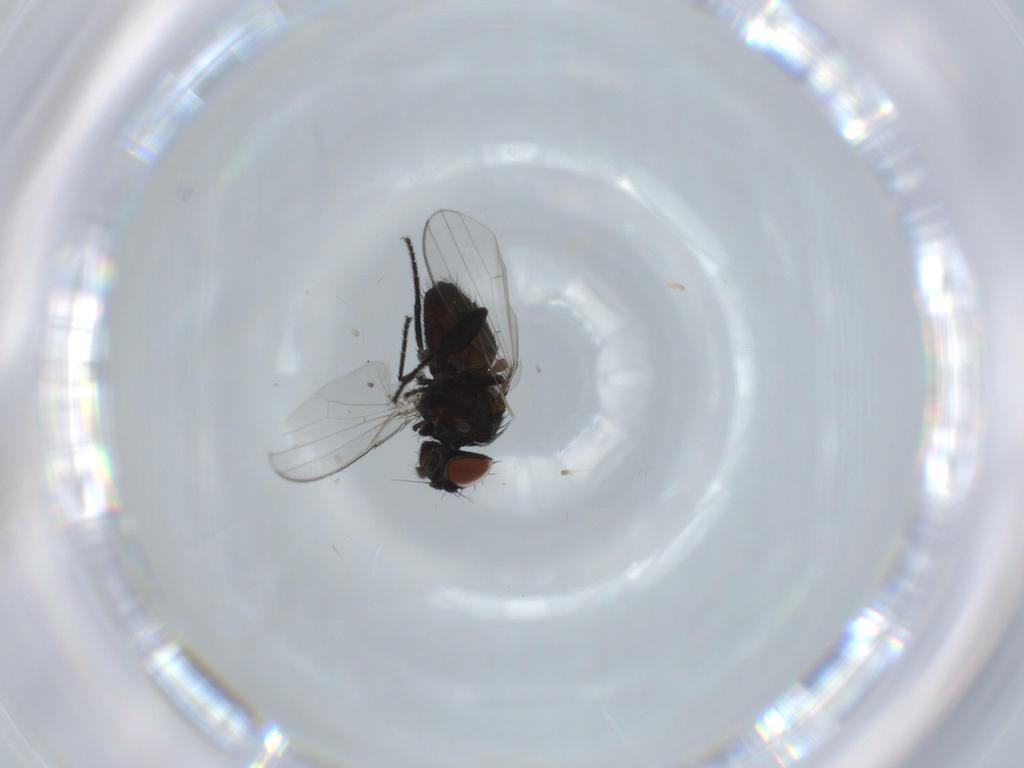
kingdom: Animalia
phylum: Arthropoda
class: Insecta
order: Diptera
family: Milichiidae
